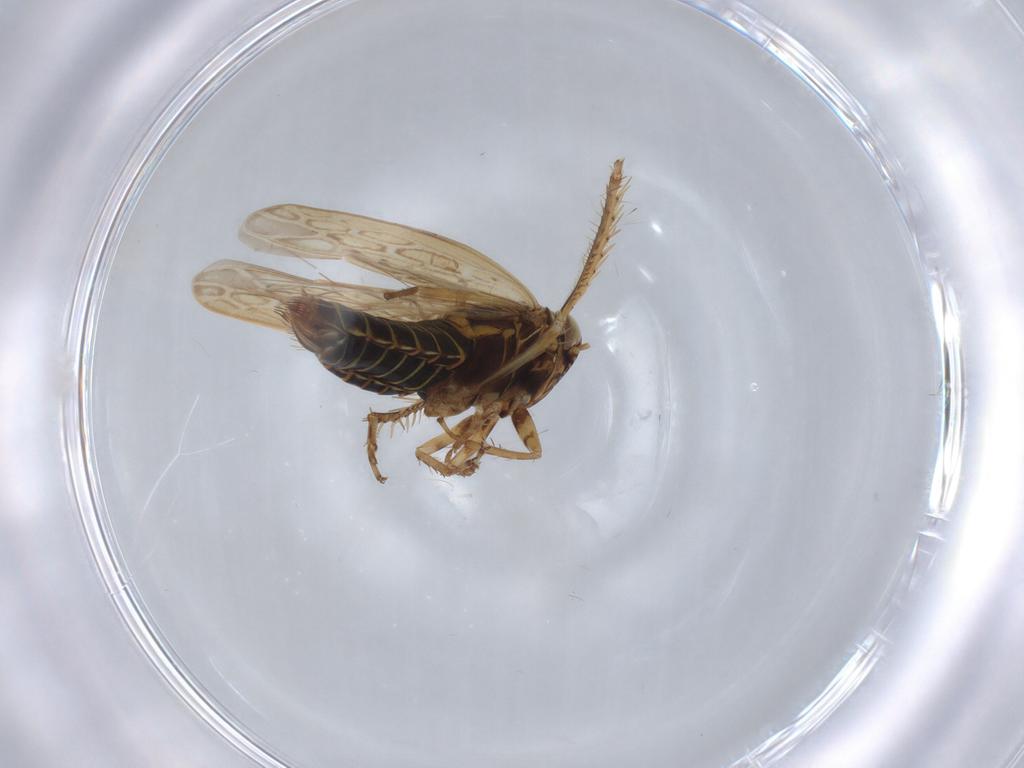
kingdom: Animalia
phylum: Arthropoda
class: Insecta
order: Hemiptera
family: Cicadellidae
